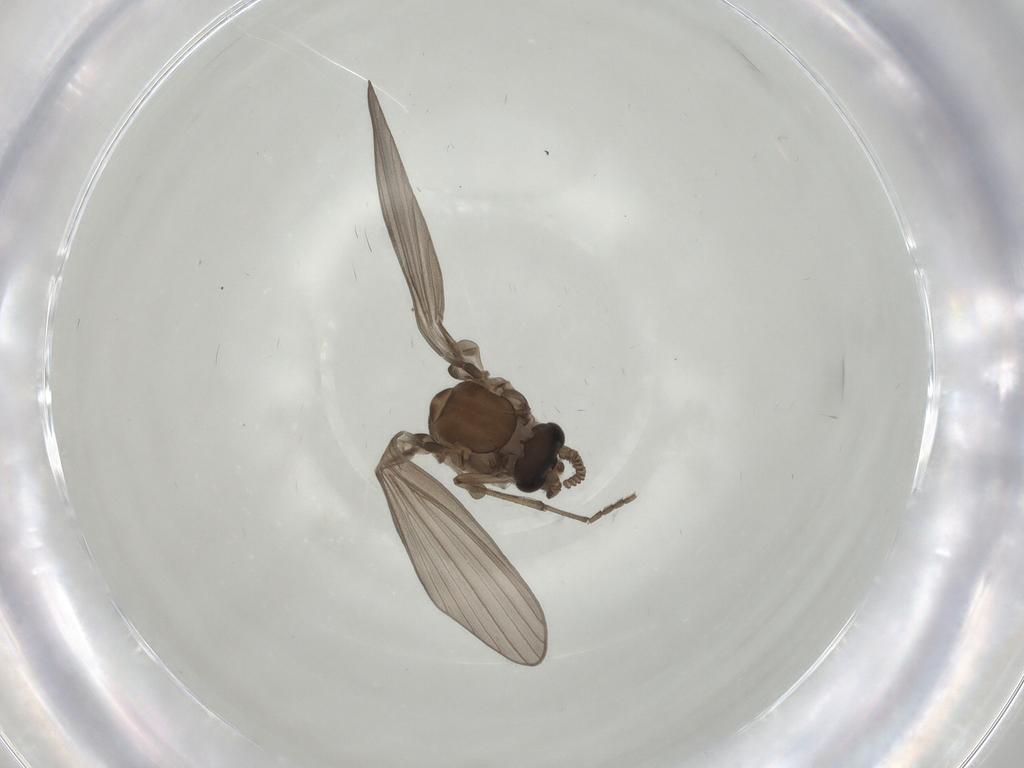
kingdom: Animalia
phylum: Arthropoda
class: Insecta
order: Diptera
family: Psychodidae
